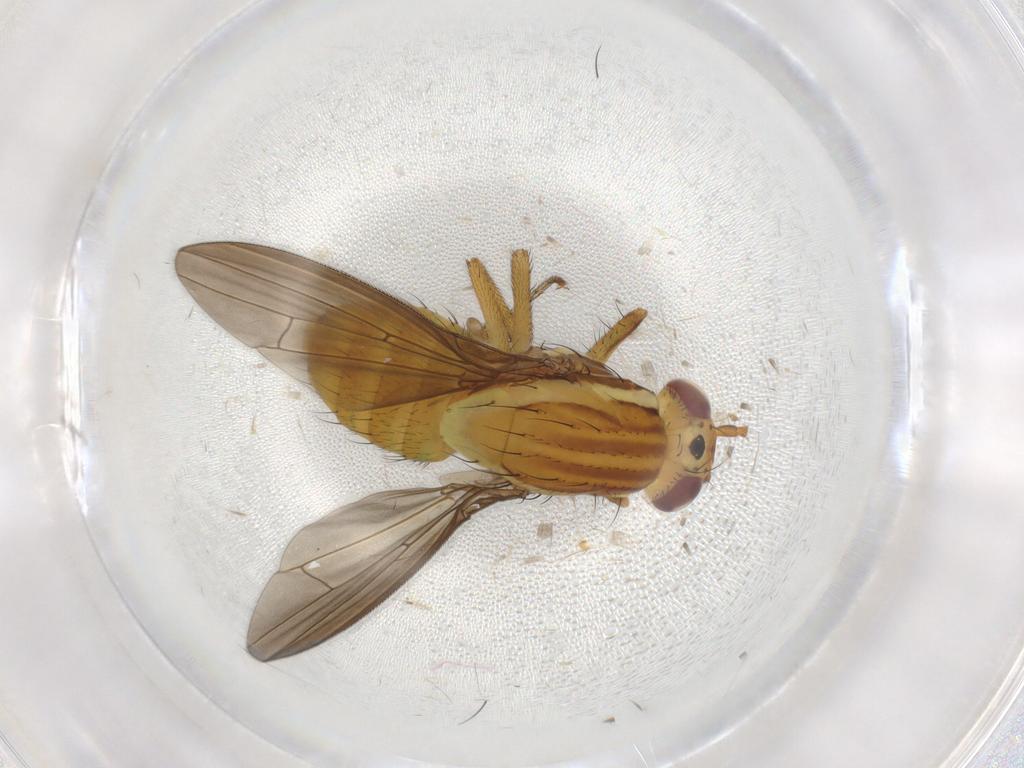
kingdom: Animalia
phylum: Arthropoda
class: Insecta
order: Diptera
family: Lauxaniidae
